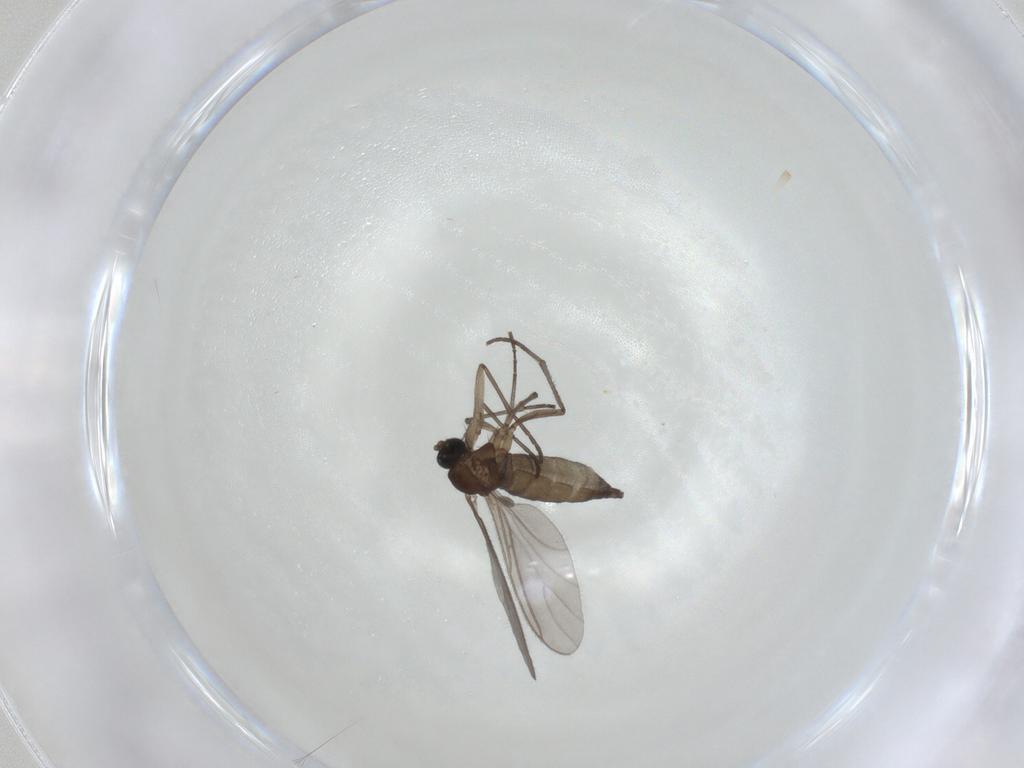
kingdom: Animalia
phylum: Arthropoda
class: Insecta
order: Diptera
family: Sciaridae
